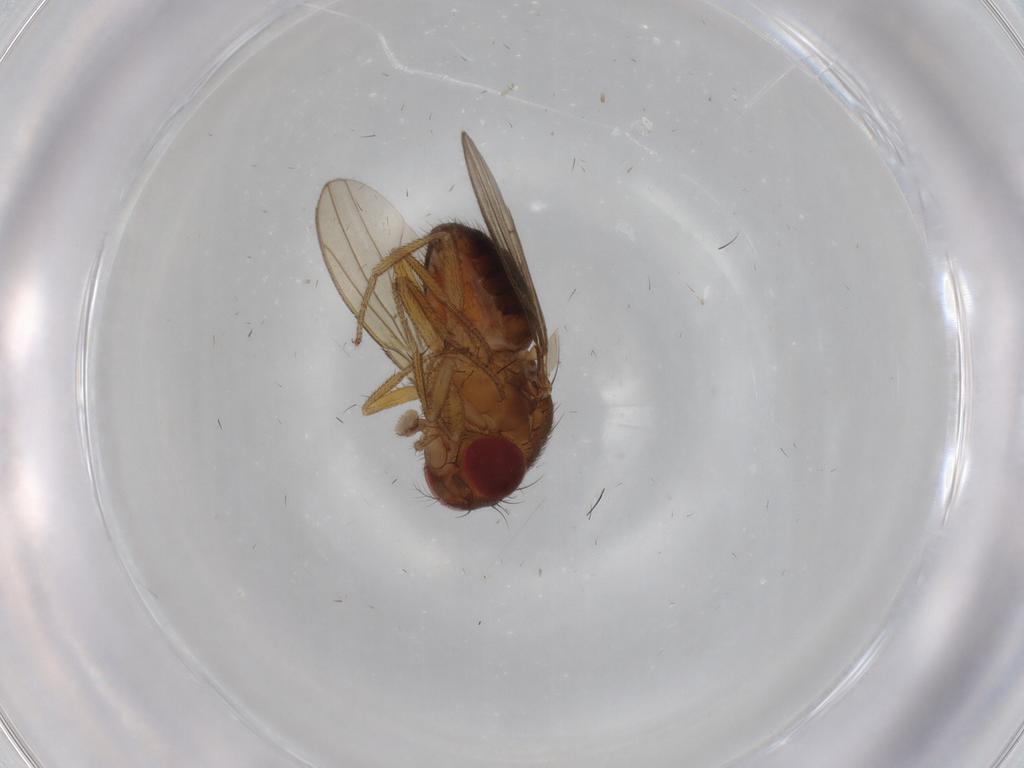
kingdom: Animalia
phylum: Arthropoda
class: Insecta
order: Diptera
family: Drosophilidae
